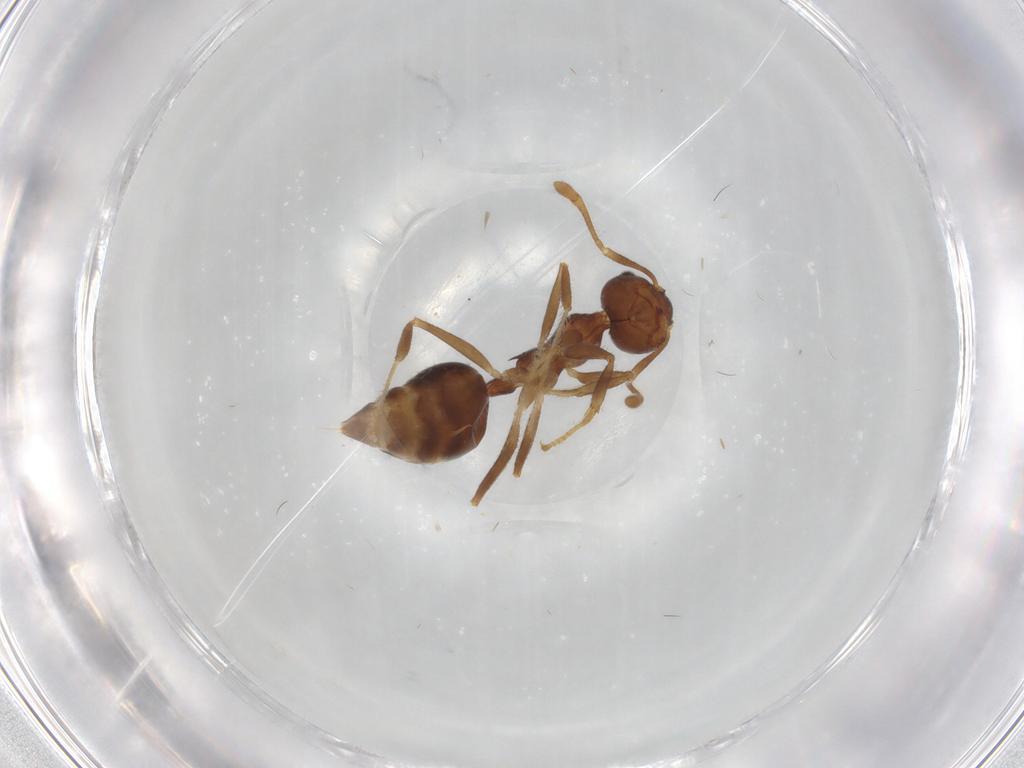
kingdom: Animalia
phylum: Arthropoda
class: Insecta
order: Hymenoptera
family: Formicidae
